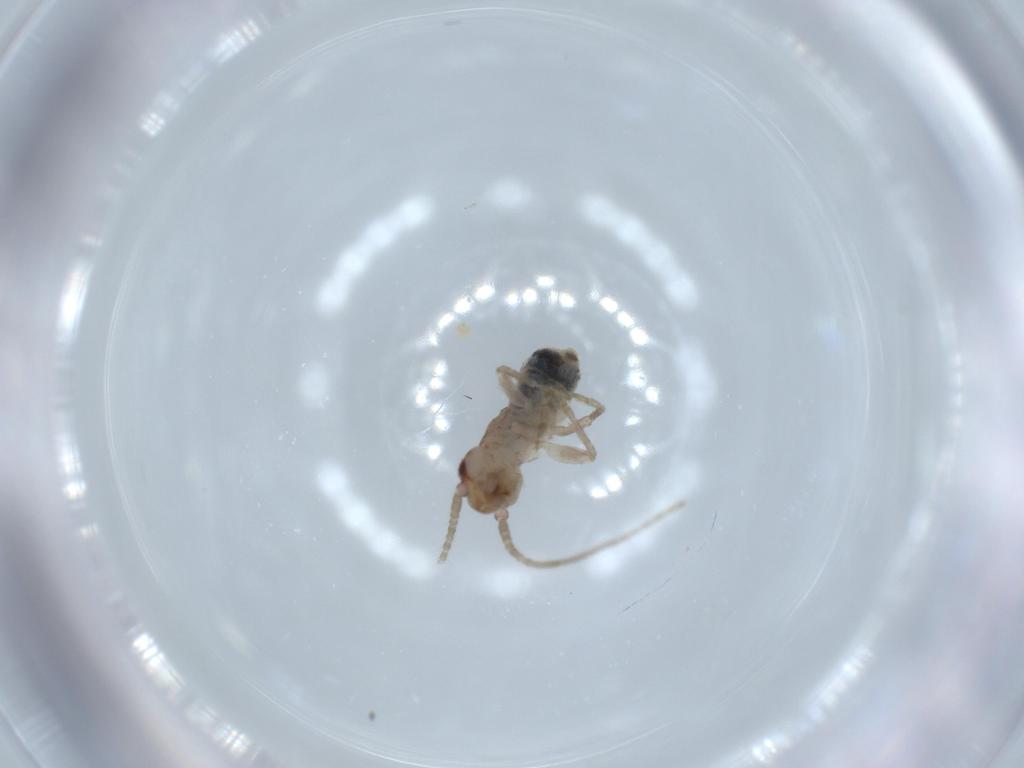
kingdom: Animalia
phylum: Arthropoda
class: Insecta
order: Orthoptera
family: Mogoplistidae
